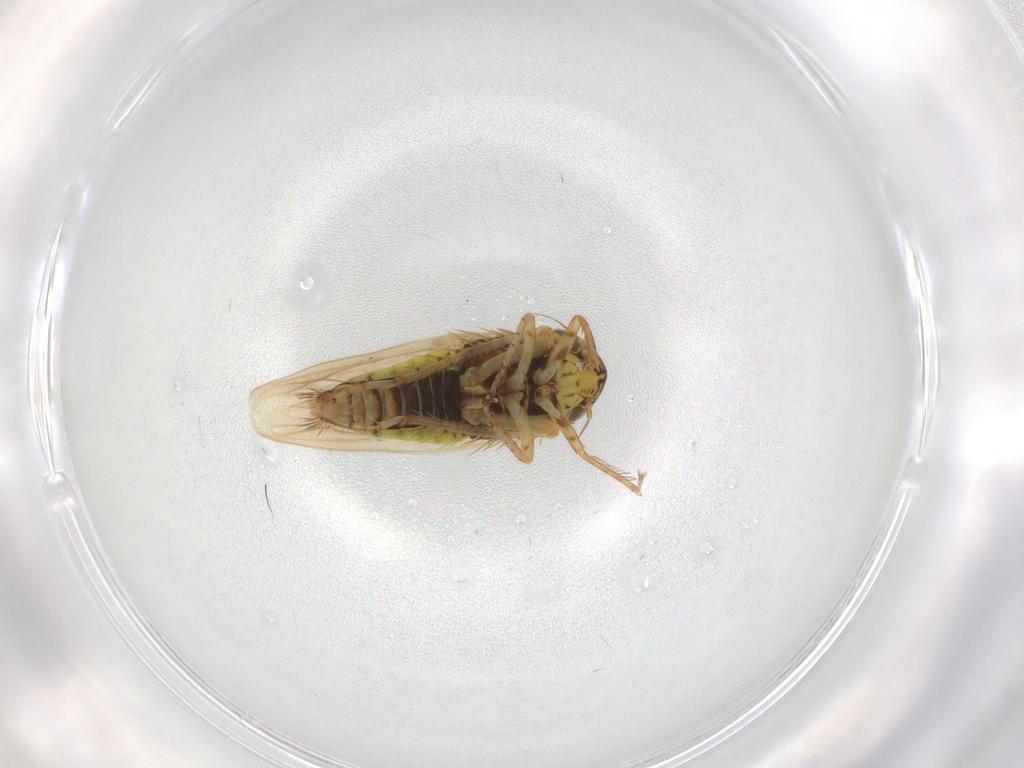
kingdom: Animalia
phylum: Arthropoda
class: Insecta
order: Hemiptera
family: Cicadellidae
